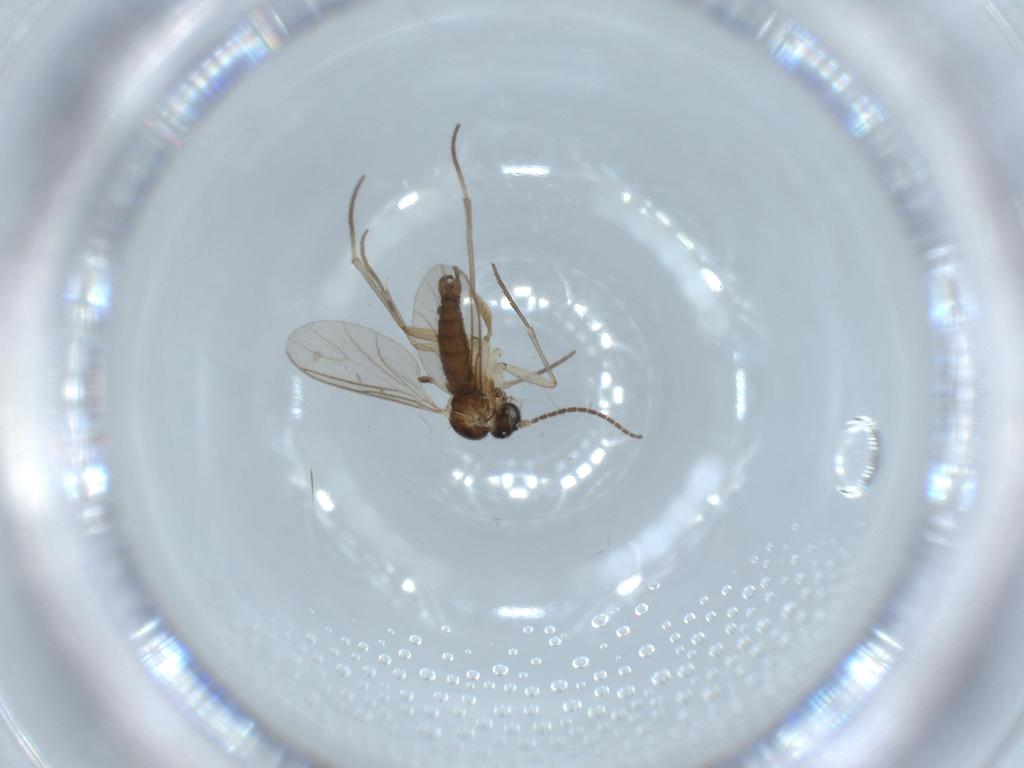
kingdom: Animalia
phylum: Arthropoda
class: Insecta
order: Diptera
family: Sciaridae
